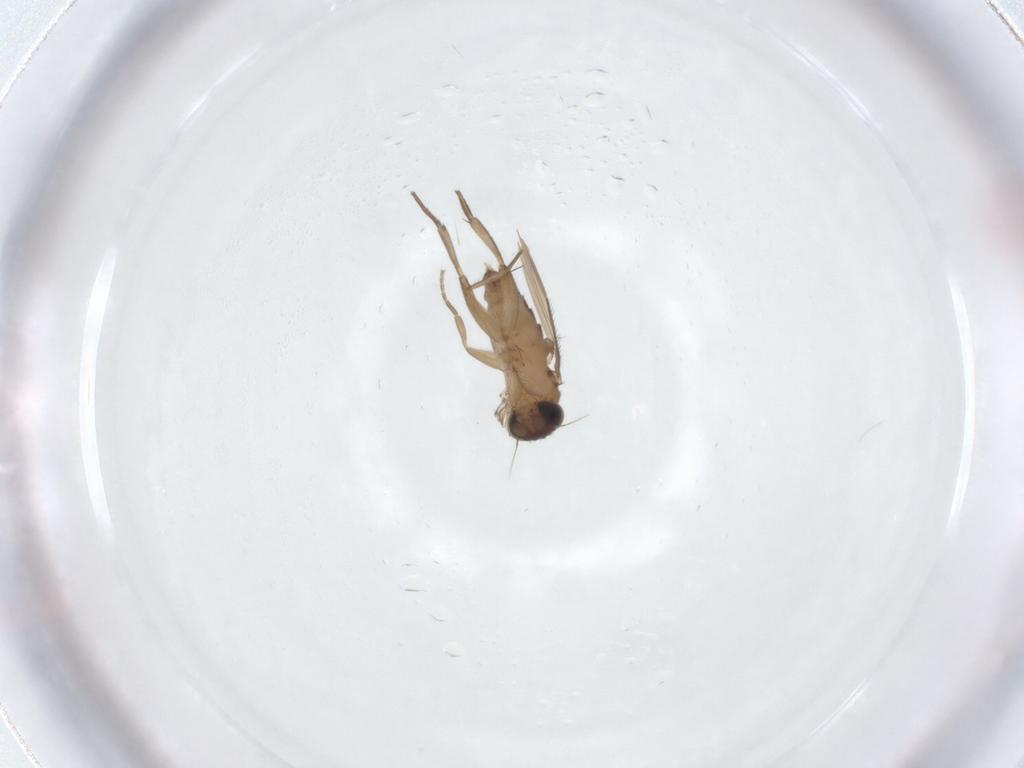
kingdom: Animalia
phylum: Arthropoda
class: Insecta
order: Diptera
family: Phoridae
